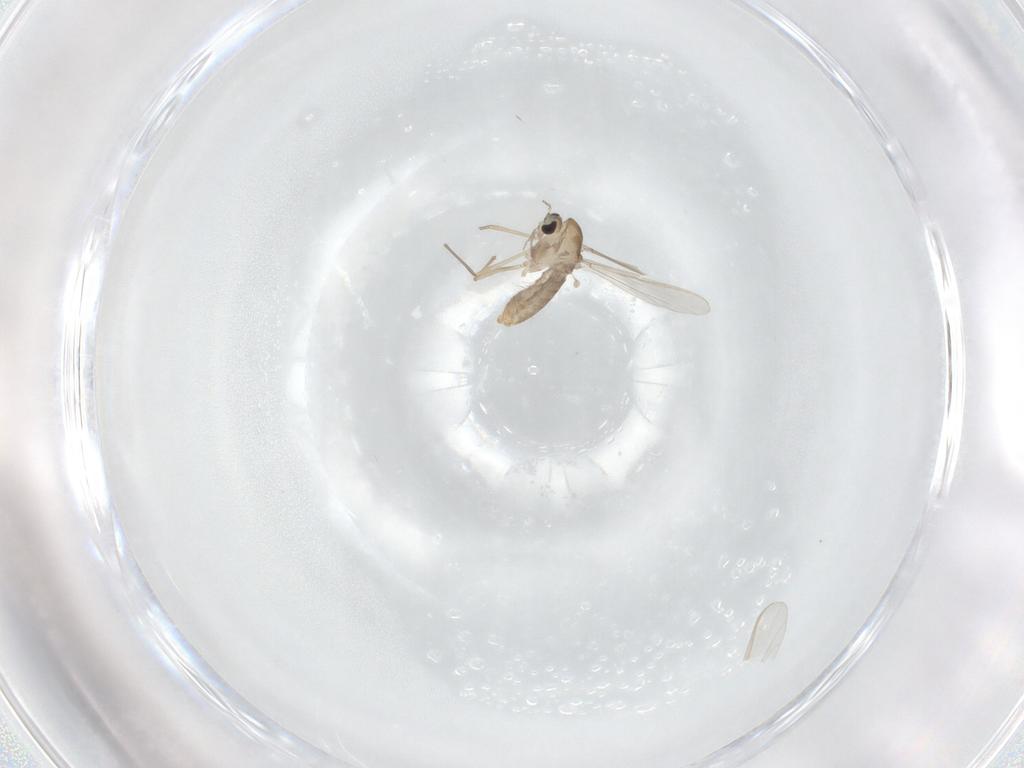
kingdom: Animalia
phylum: Arthropoda
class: Insecta
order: Diptera
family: Chironomidae
